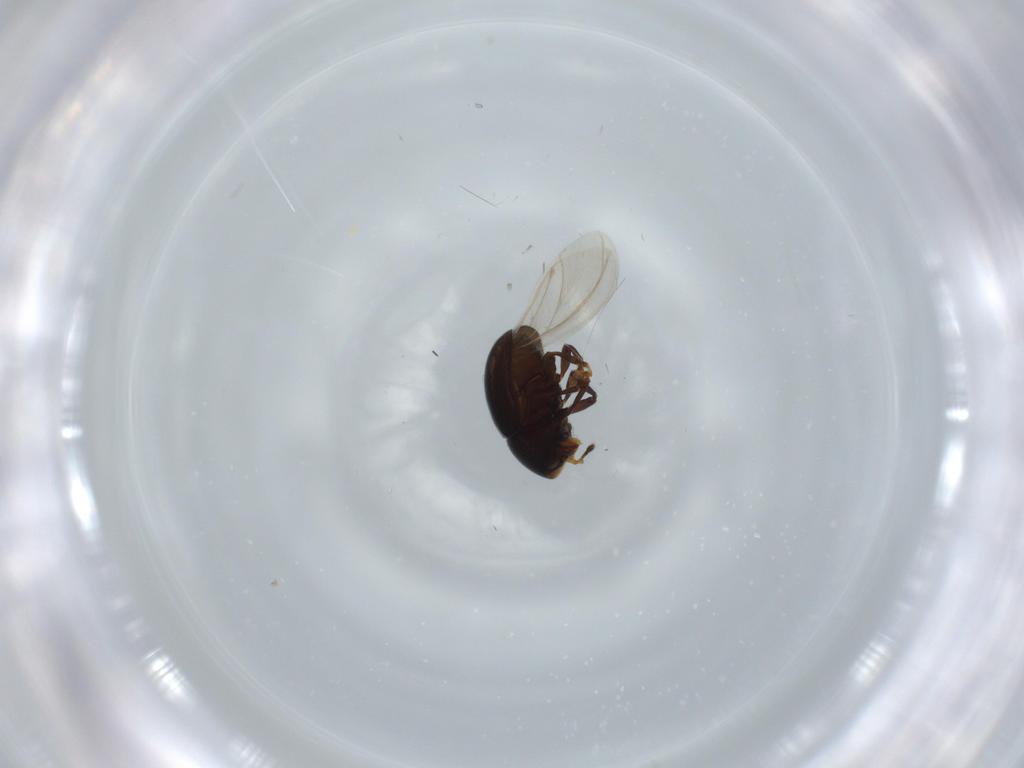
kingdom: Animalia
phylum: Arthropoda
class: Insecta
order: Coleoptera
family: Anthribidae
